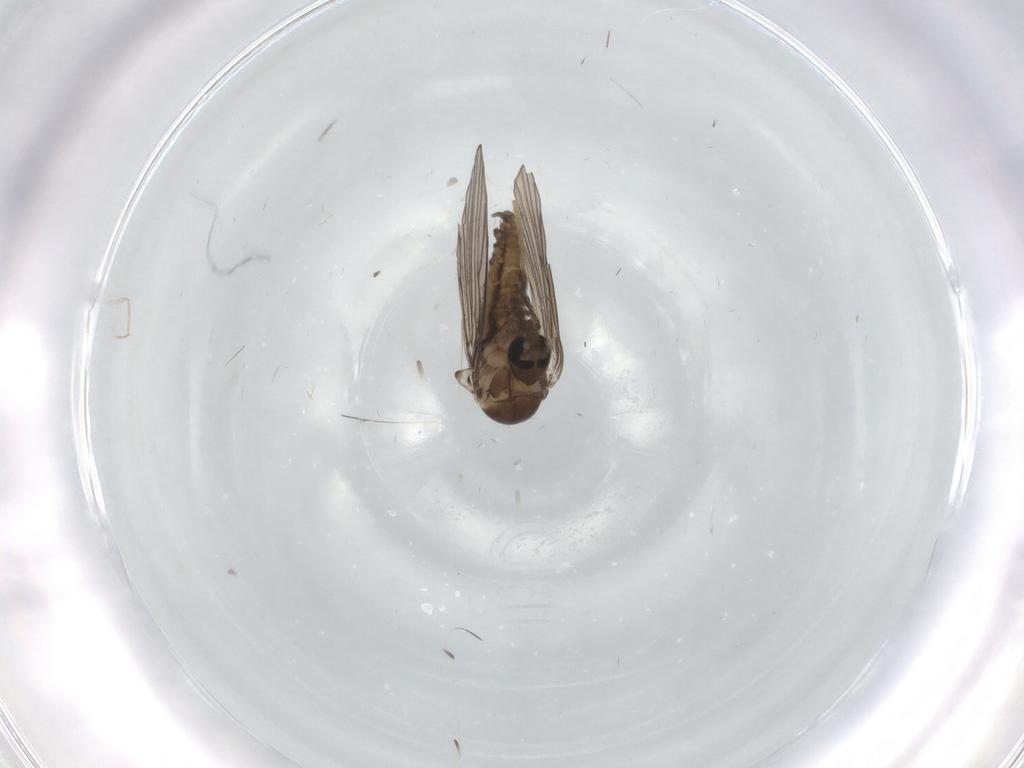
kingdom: Animalia
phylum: Arthropoda
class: Insecta
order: Diptera
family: Psychodidae
